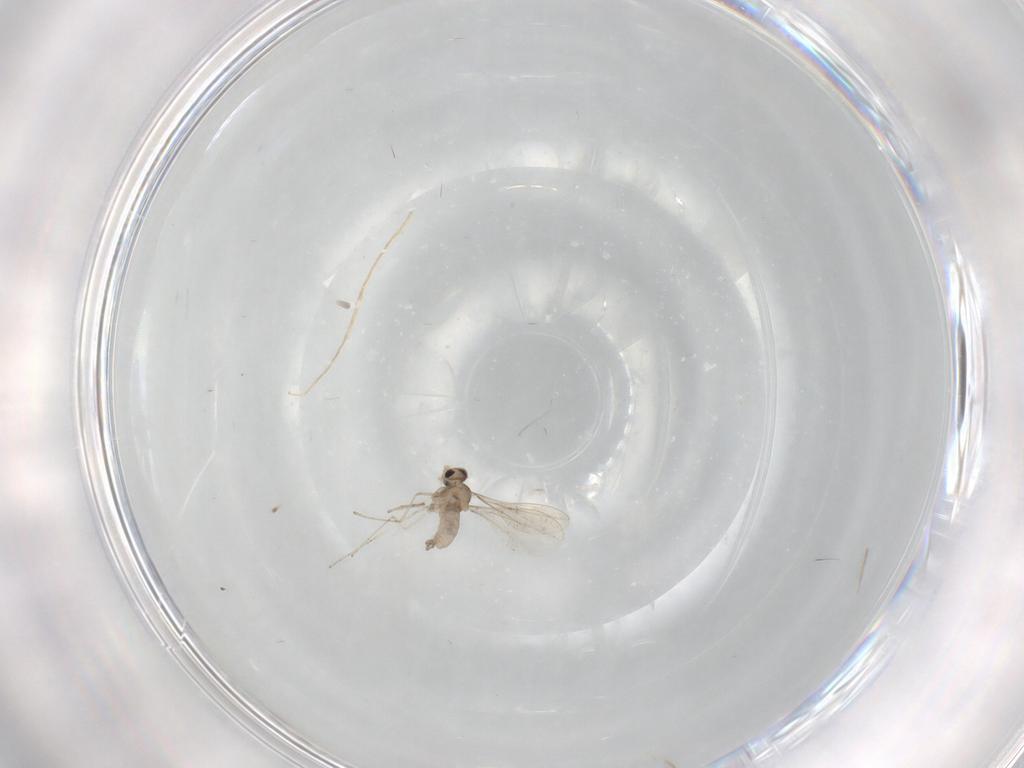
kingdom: Animalia
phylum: Arthropoda
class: Insecta
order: Diptera
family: Cecidomyiidae
